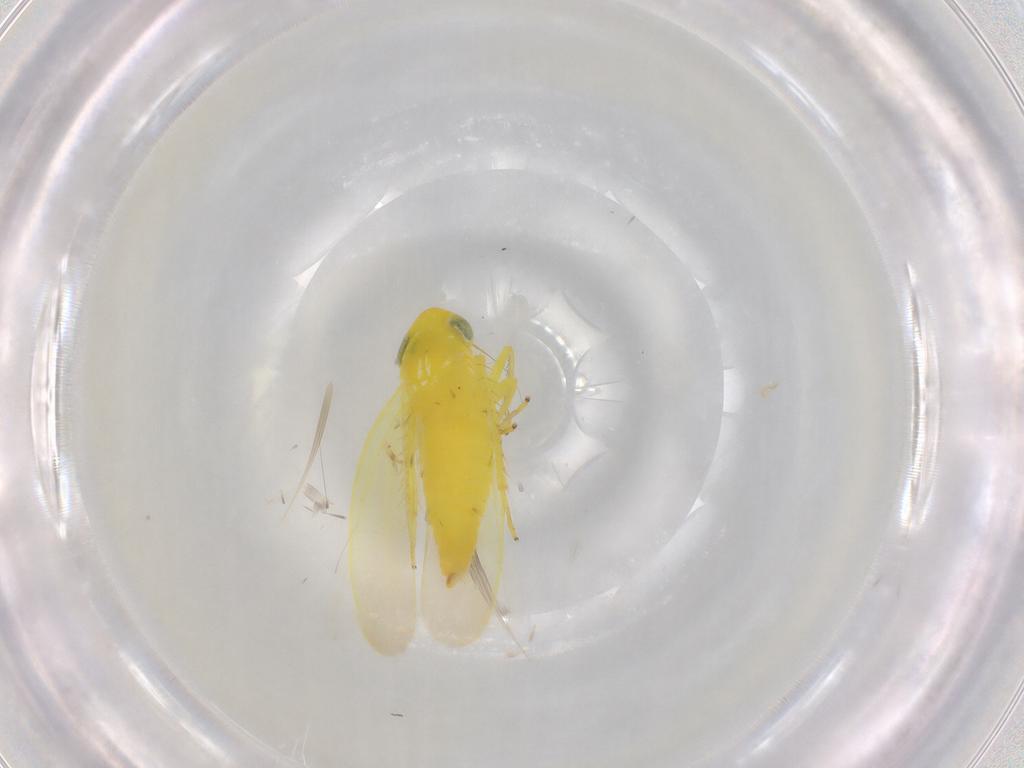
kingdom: Animalia
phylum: Arthropoda
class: Insecta
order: Hemiptera
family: Cicadellidae
